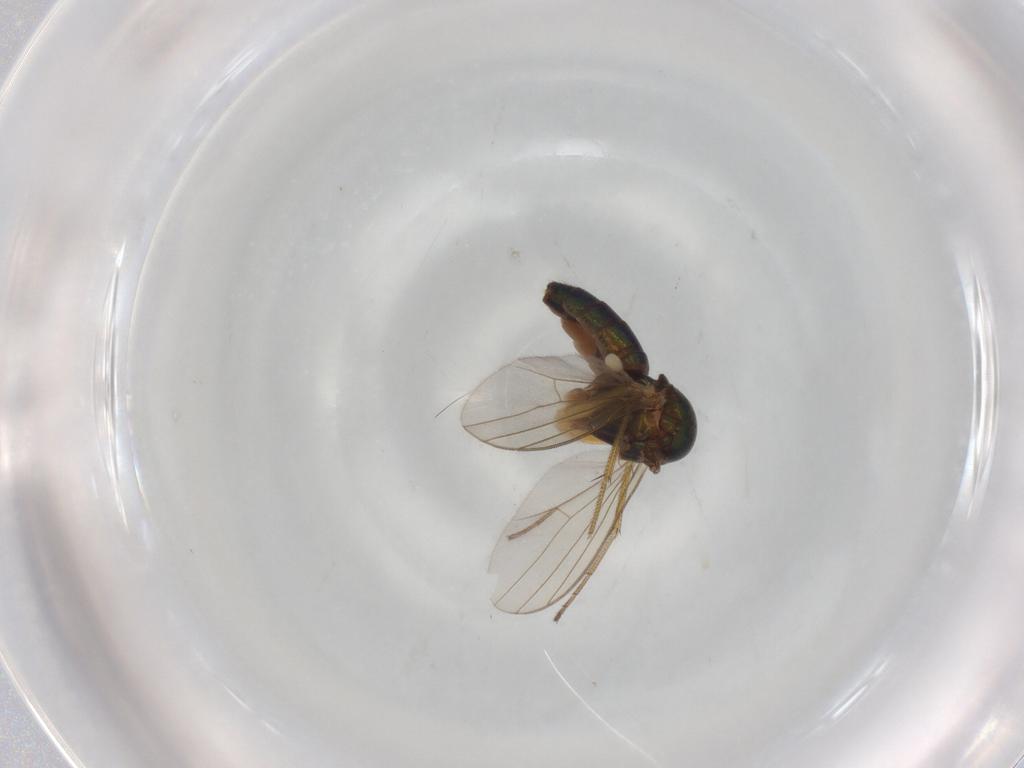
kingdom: Animalia
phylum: Arthropoda
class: Insecta
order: Diptera
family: Dolichopodidae
